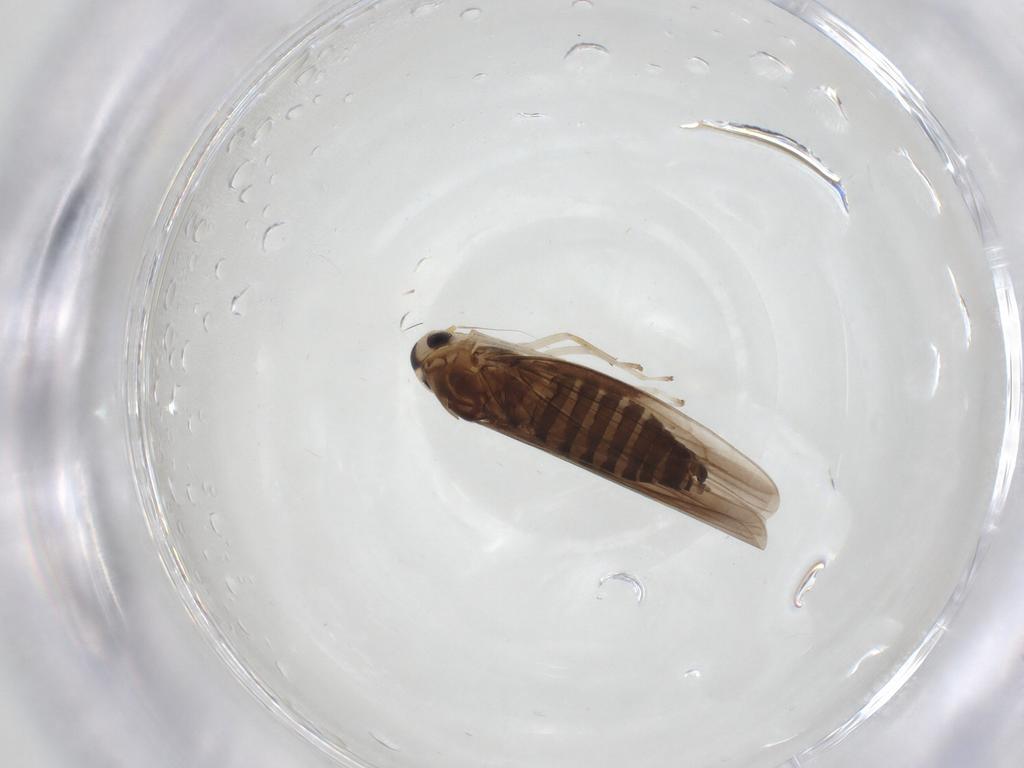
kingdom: Animalia
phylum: Arthropoda
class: Insecta
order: Hemiptera
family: Cicadellidae
